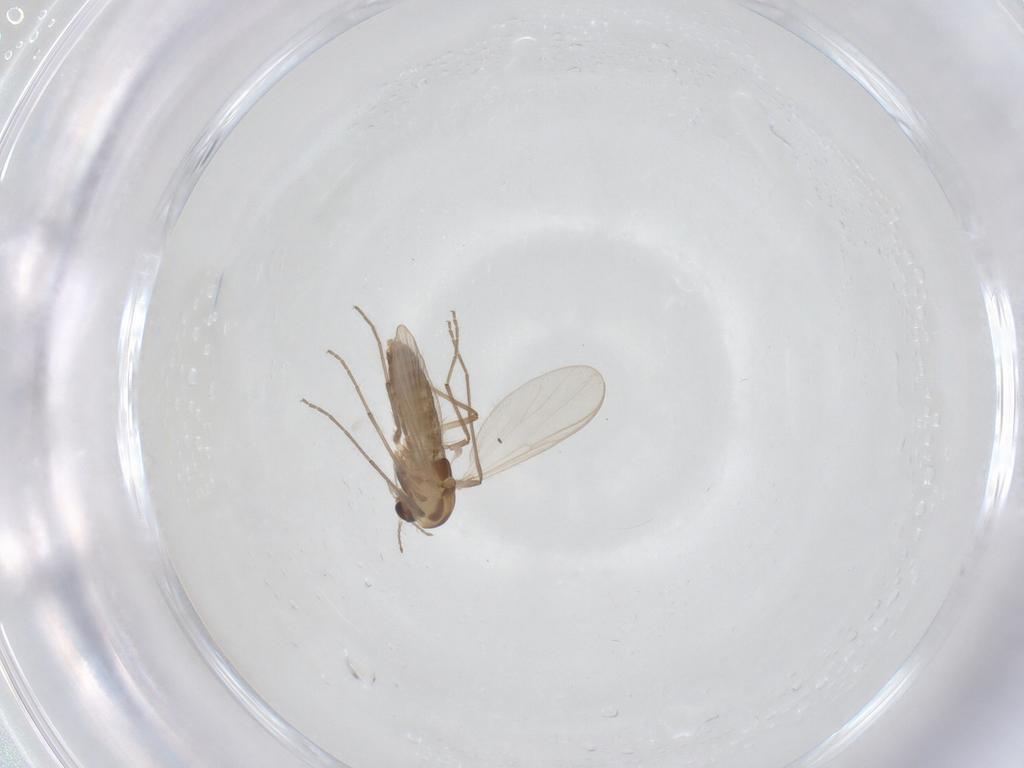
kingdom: Animalia
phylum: Arthropoda
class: Insecta
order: Diptera
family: Chironomidae
